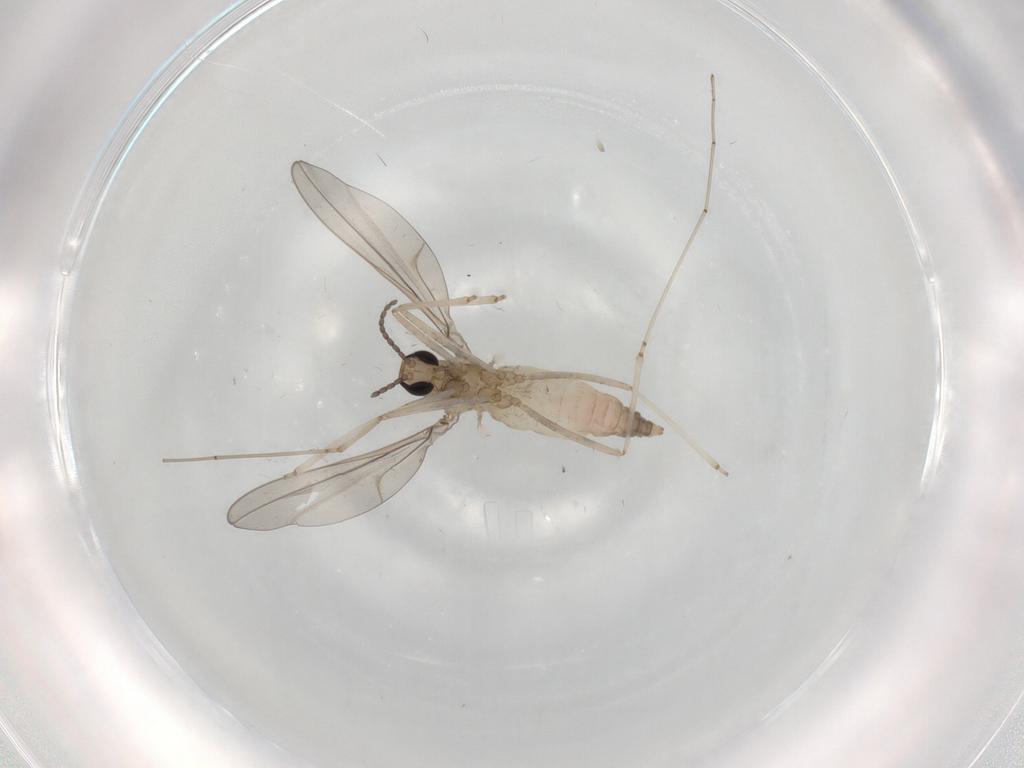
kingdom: Animalia
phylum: Arthropoda
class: Insecta
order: Diptera
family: Cecidomyiidae
